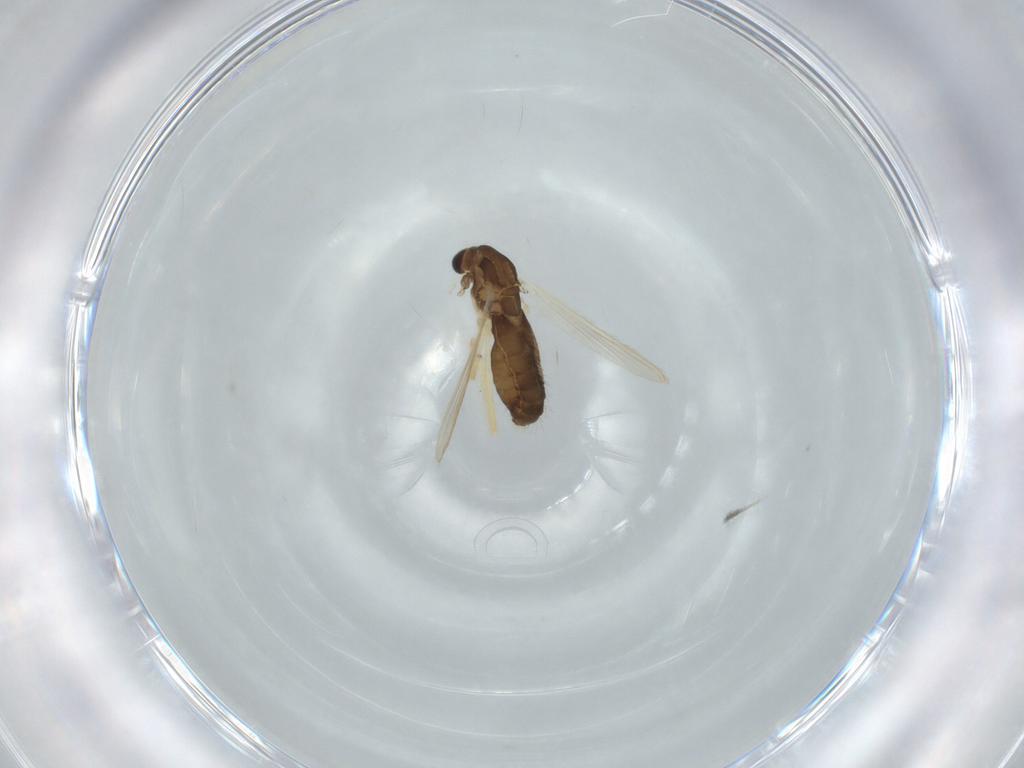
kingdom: Animalia
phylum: Arthropoda
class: Insecta
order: Diptera
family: Chironomidae
